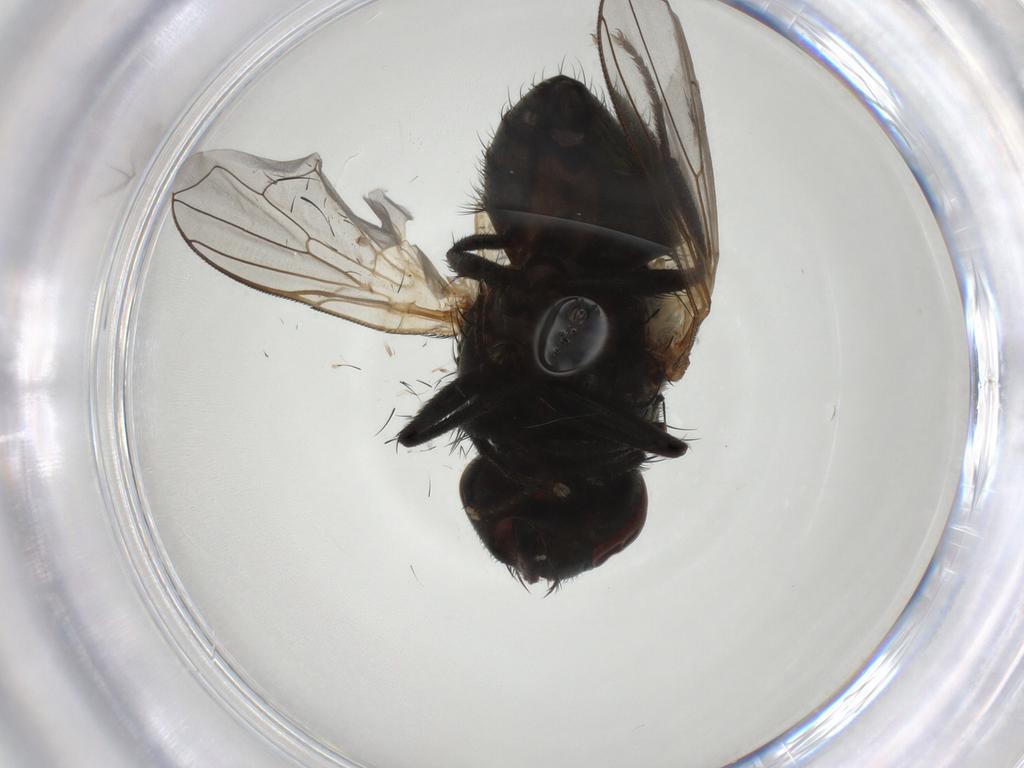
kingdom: Animalia
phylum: Arthropoda
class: Insecta
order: Diptera
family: Muscidae
